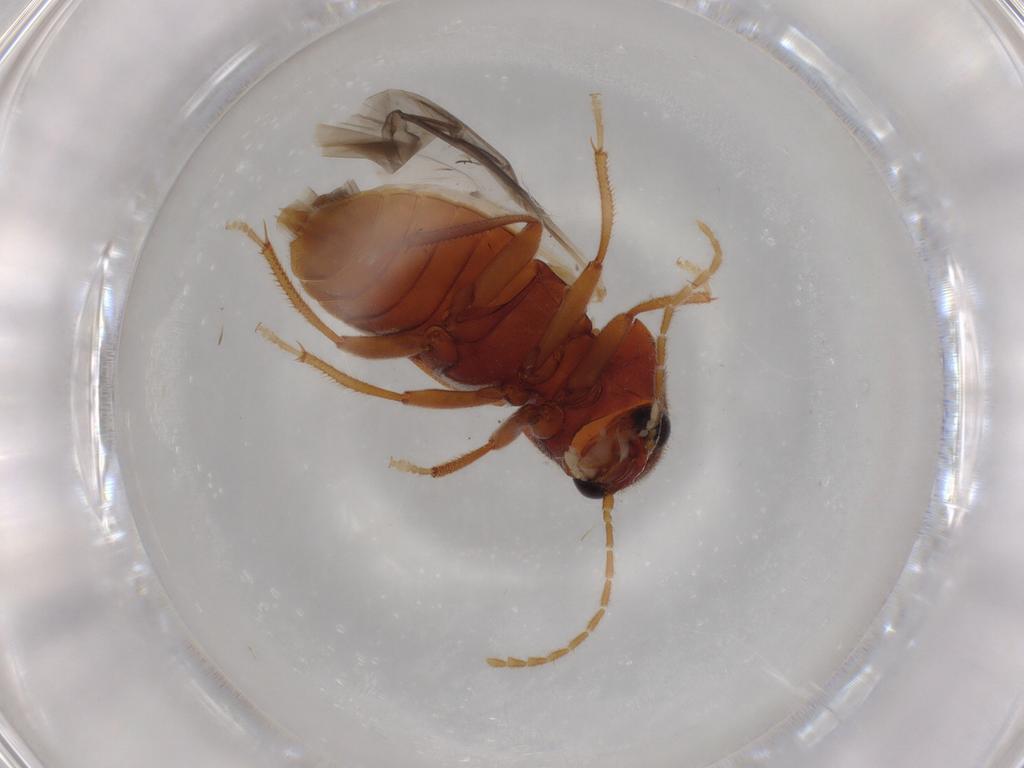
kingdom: Animalia
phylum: Arthropoda
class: Insecta
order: Coleoptera
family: Ptilodactylidae
